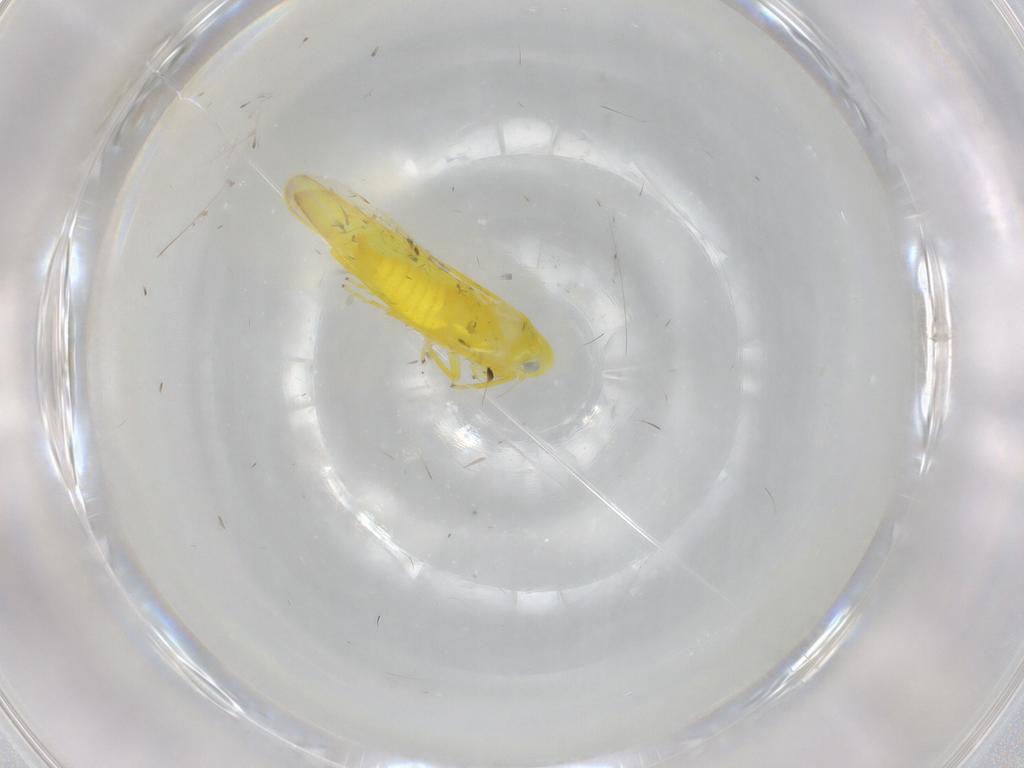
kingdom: Animalia
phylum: Arthropoda
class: Insecta
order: Hemiptera
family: Cicadellidae
